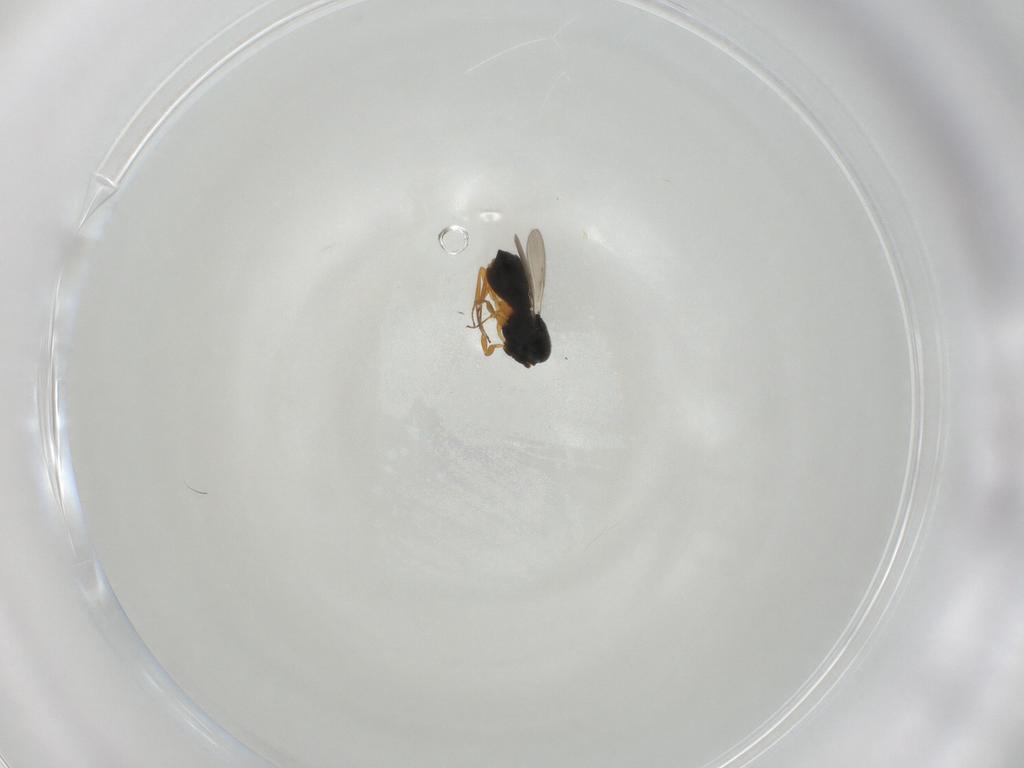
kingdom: Animalia
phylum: Arthropoda
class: Insecta
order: Hymenoptera
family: Scelionidae
